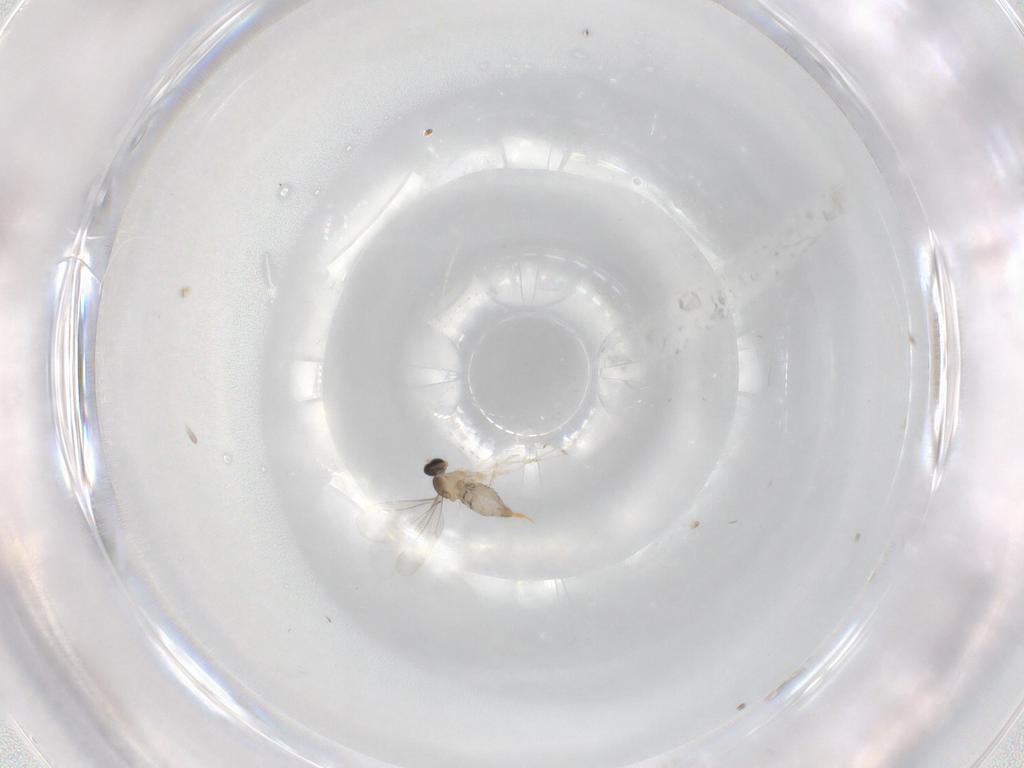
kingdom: Animalia
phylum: Arthropoda
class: Insecta
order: Diptera
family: Cecidomyiidae
